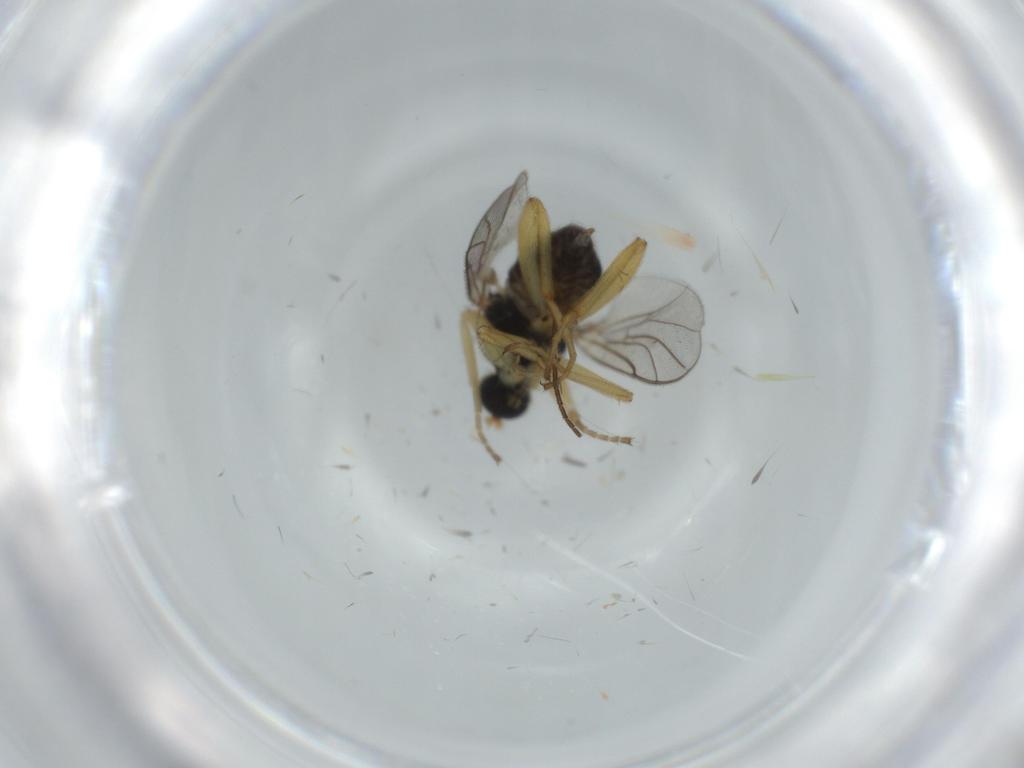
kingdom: Animalia
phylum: Arthropoda
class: Insecta
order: Diptera
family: Hybotidae
